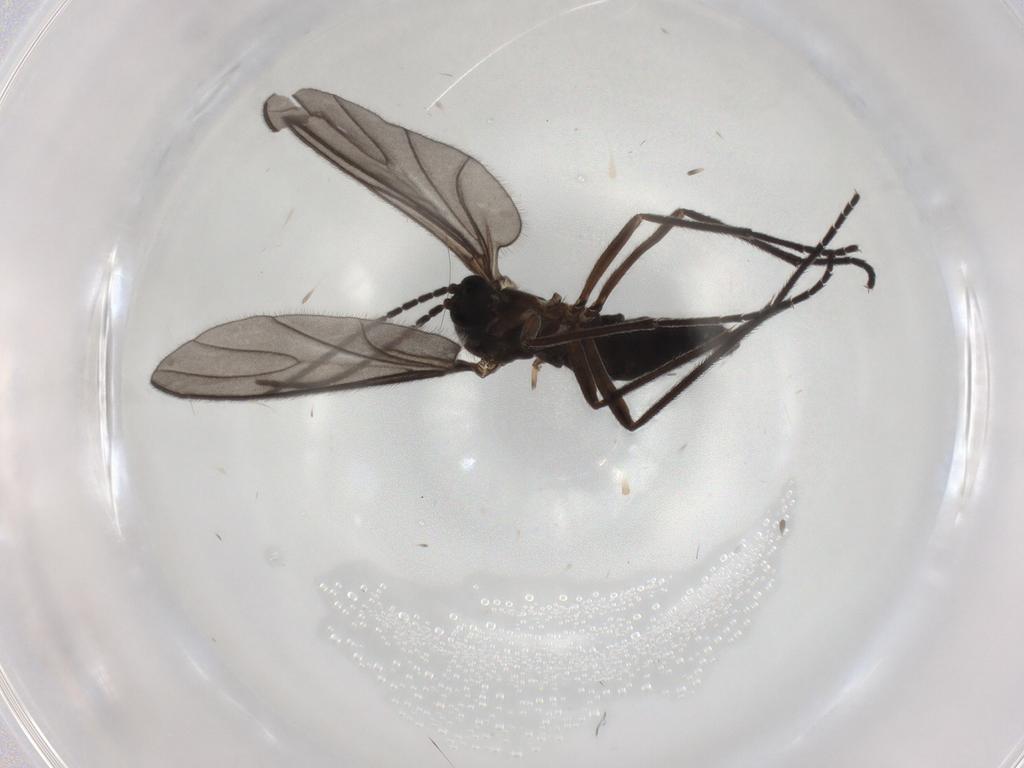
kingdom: Animalia
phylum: Arthropoda
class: Insecta
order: Diptera
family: Sciaridae
